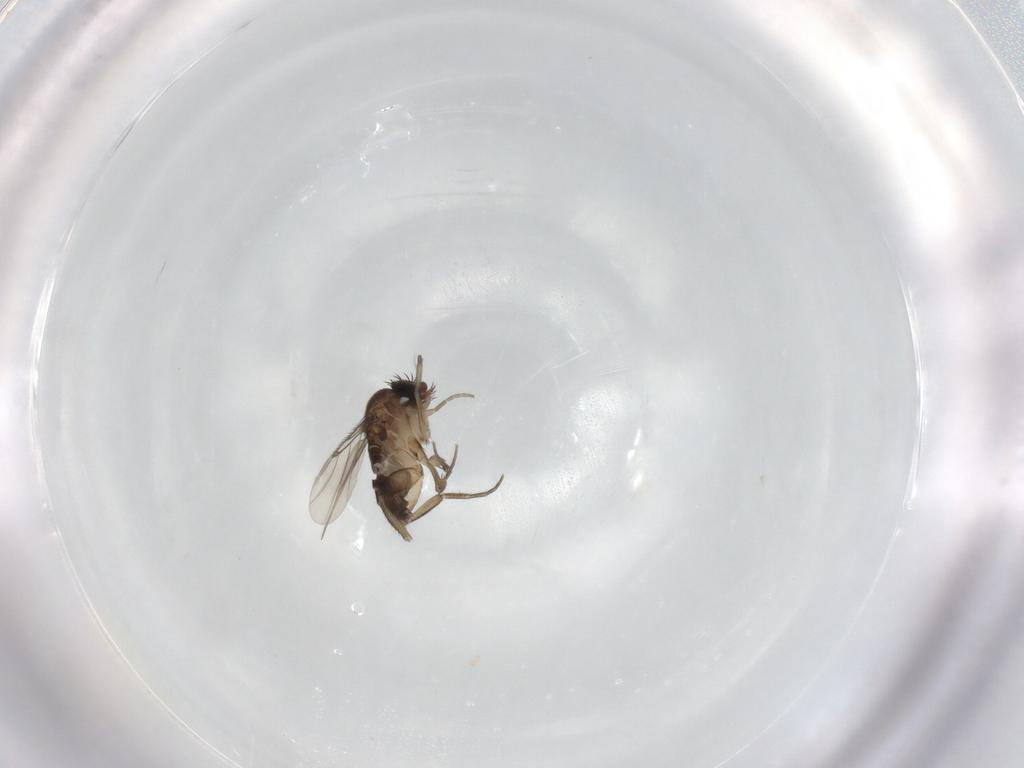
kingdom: Animalia
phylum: Arthropoda
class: Insecta
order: Diptera
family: Phoridae
